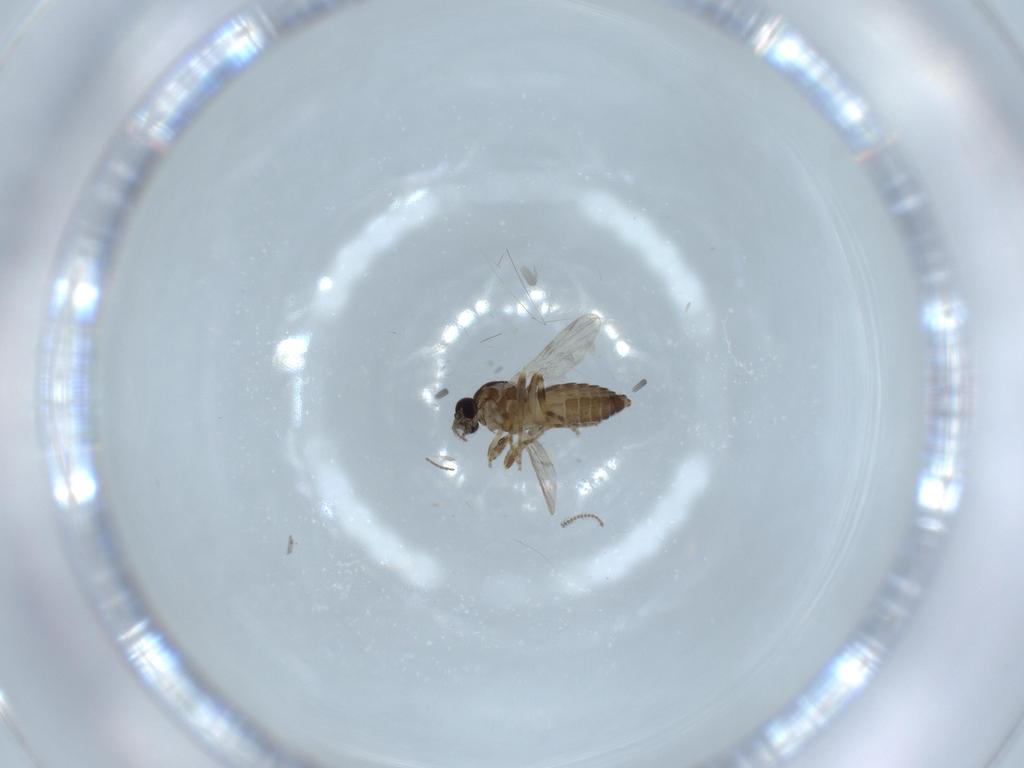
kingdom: Animalia
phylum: Arthropoda
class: Insecta
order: Diptera
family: Ceratopogonidae
